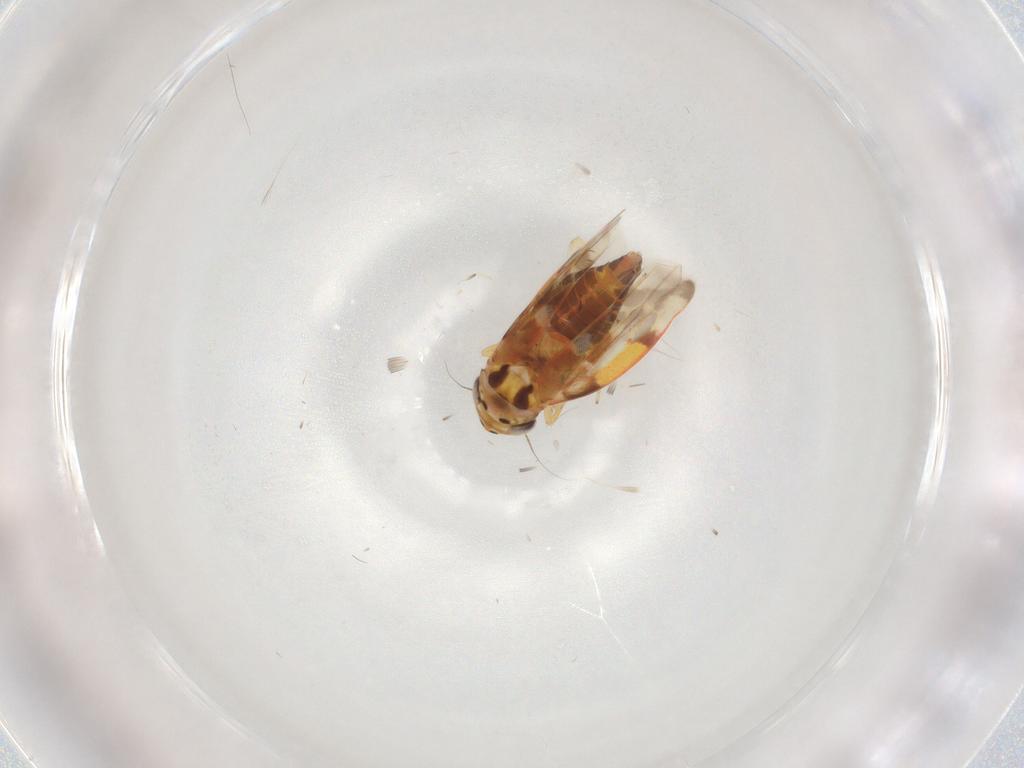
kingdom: Animalia
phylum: Arthropoda
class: Insecta
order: Hemiptera
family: Cicadellidae
